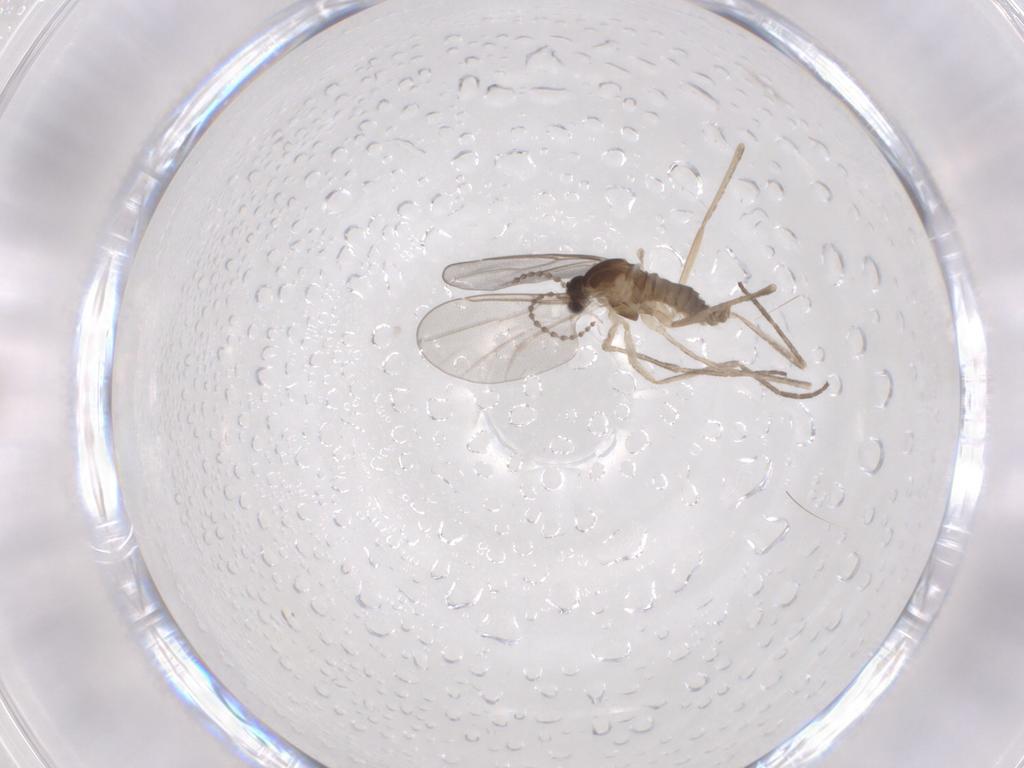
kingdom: Animalia
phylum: Arthropoda
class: Insecta
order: Diptera
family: Cecidomyiidae
